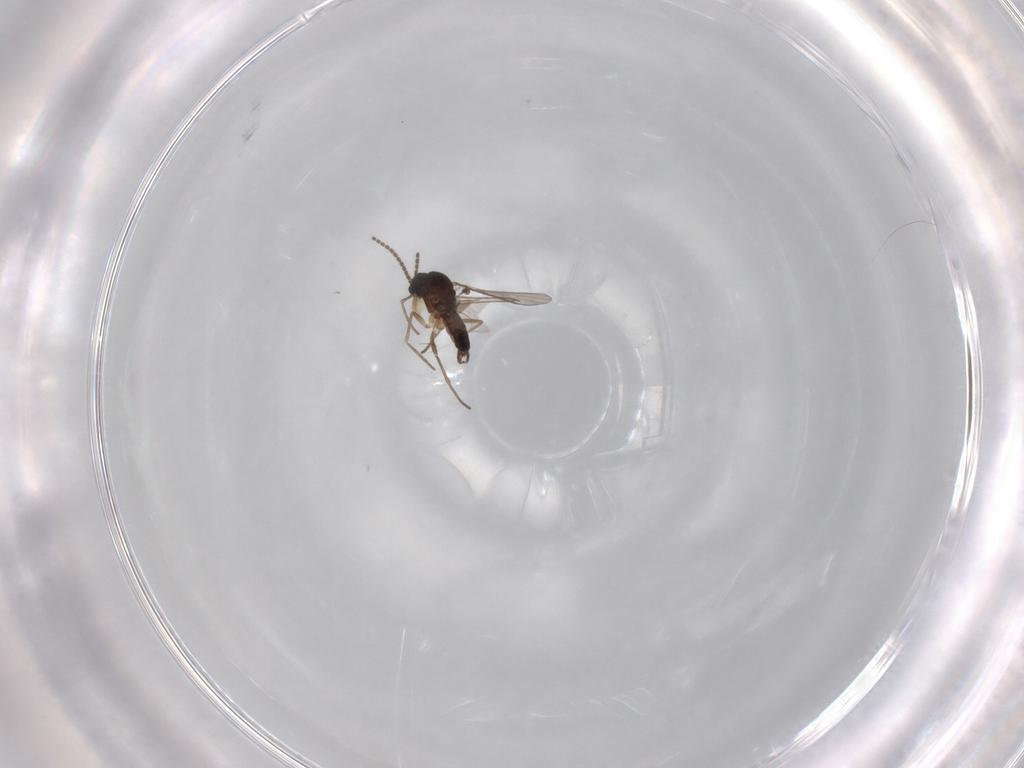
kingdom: Animalia
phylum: Arthropoda
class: Insecta
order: Diptera
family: Sciaridae
